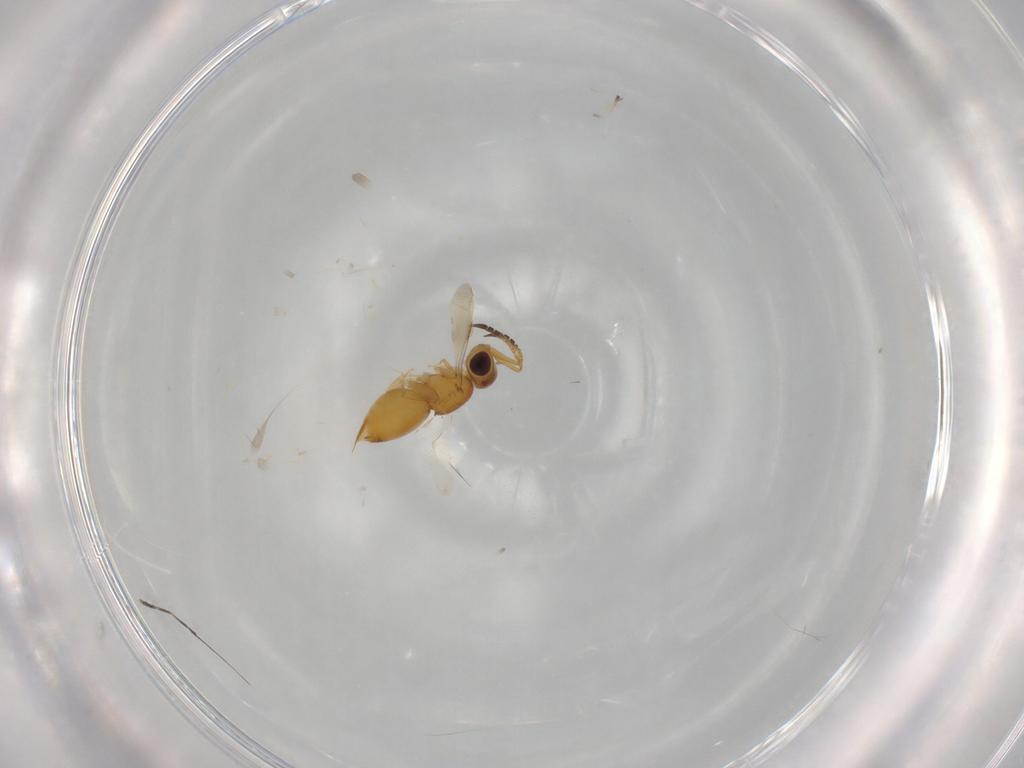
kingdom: Animalia
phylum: Arthropoda
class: Insecta
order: Hymenoptera
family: Ceraphronidae
